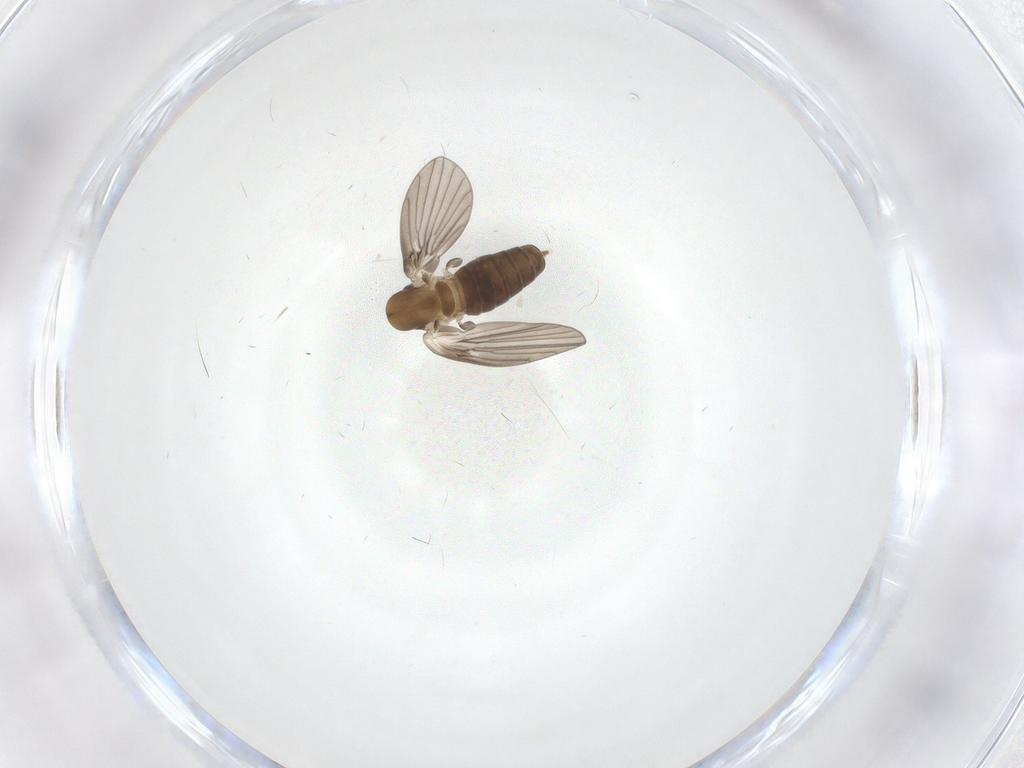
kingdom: Animalia
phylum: Arthropoda
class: Insecta
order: Diptera
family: Psychodidae
